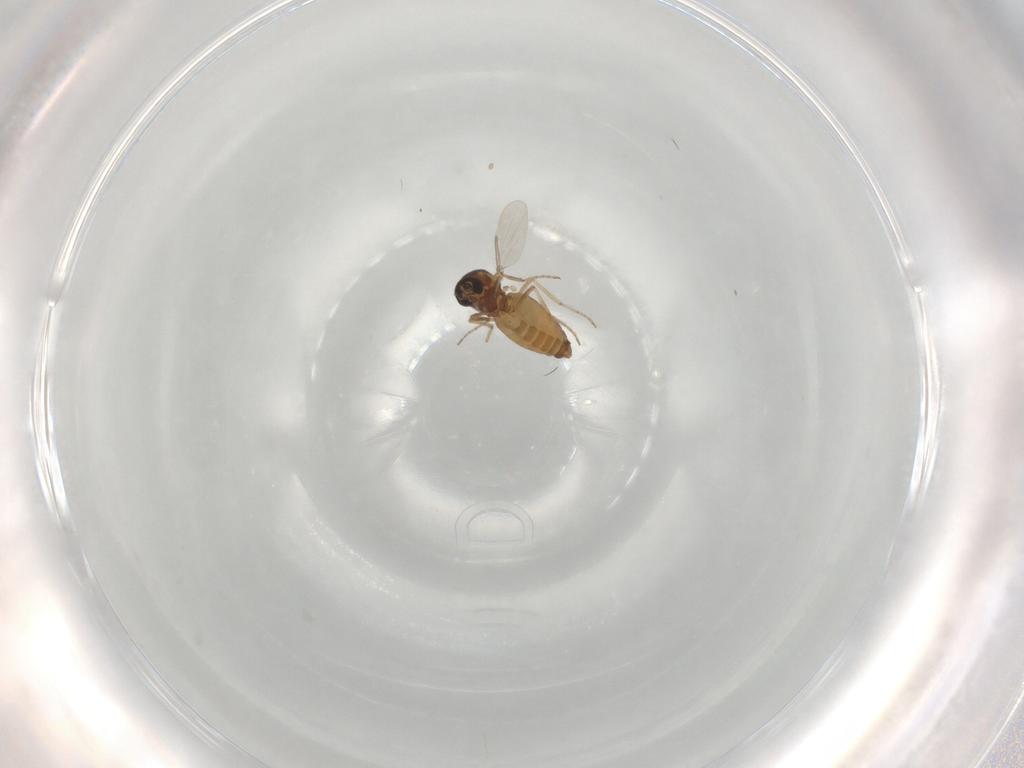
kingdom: Animalia
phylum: Arthropoda
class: Insecta
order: Diptera
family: Ceratopogonidae
